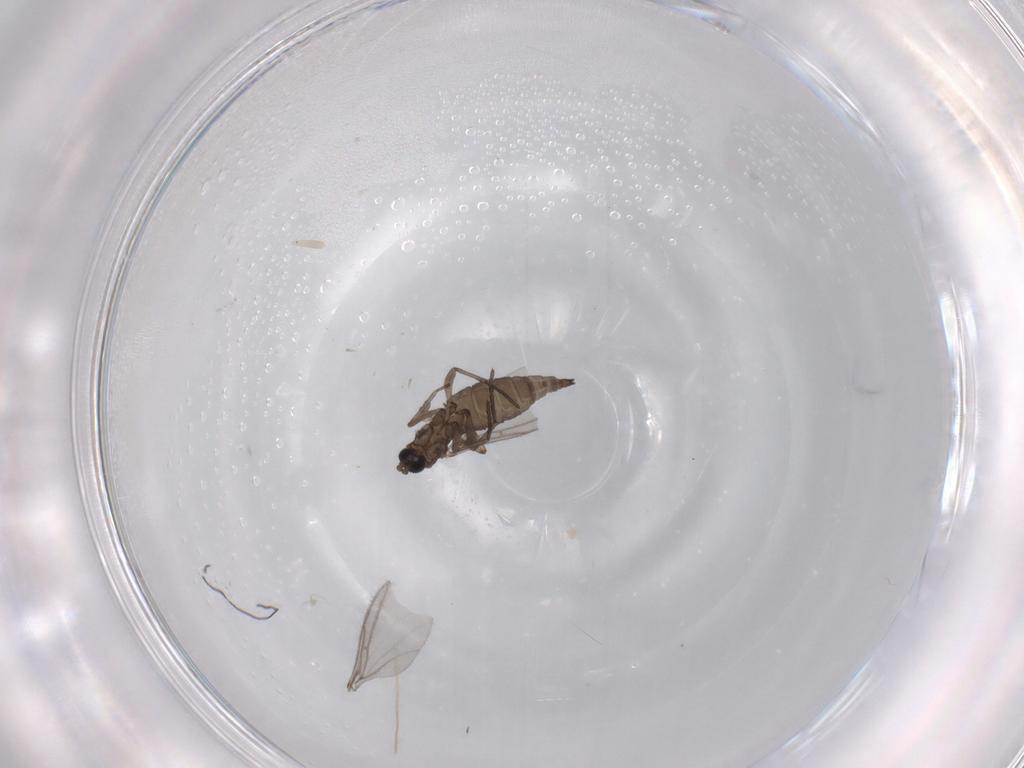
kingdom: Animalia
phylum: Arthropoda
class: Insecta
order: Diptera
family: Sciaridae
